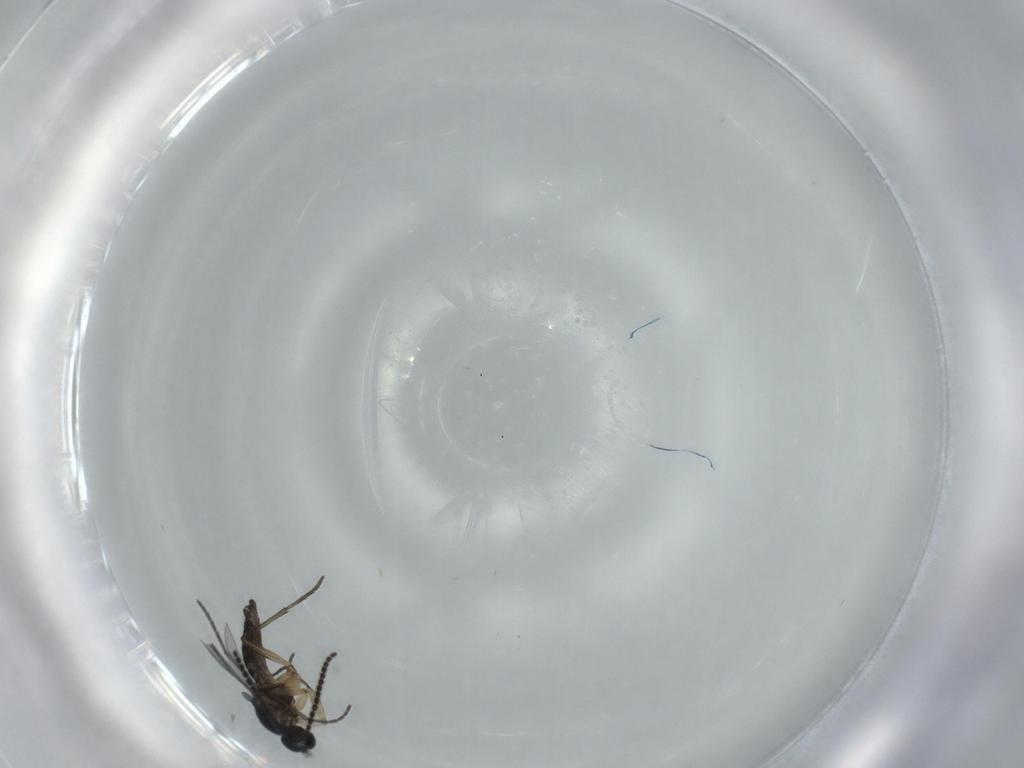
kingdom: Animalia
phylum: Arthropoda
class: Insecta
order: Diptera
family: Sciaridae
